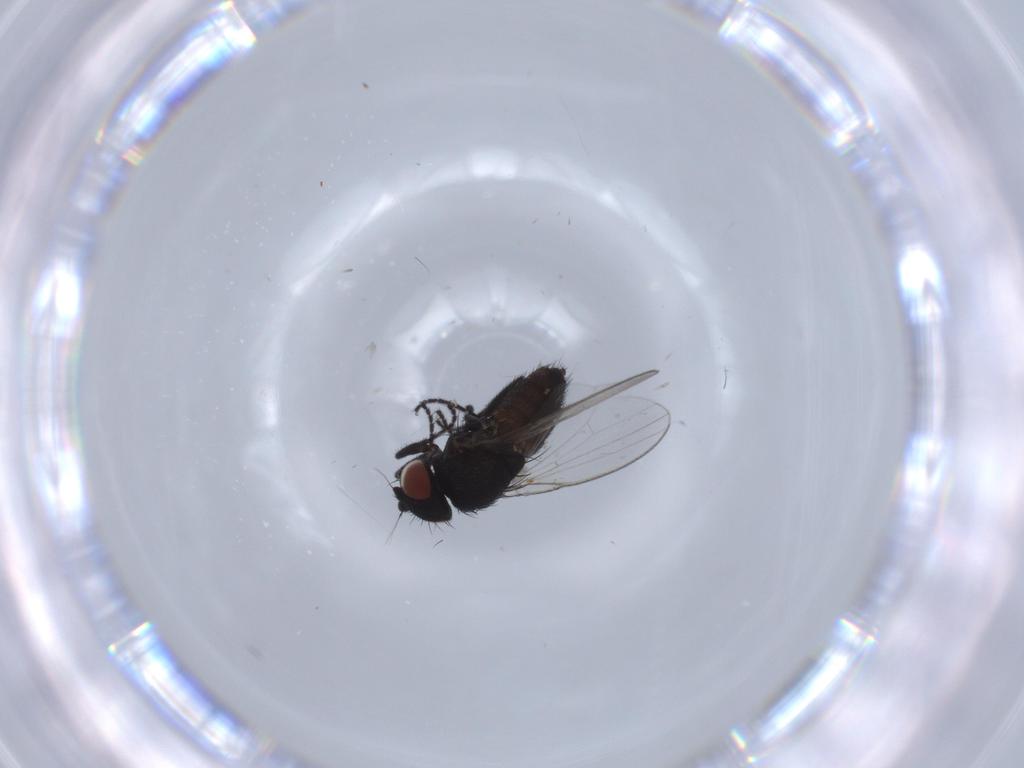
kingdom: Animalia
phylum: Arthropoda
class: Insecta
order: Diptera
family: Milichiidae
